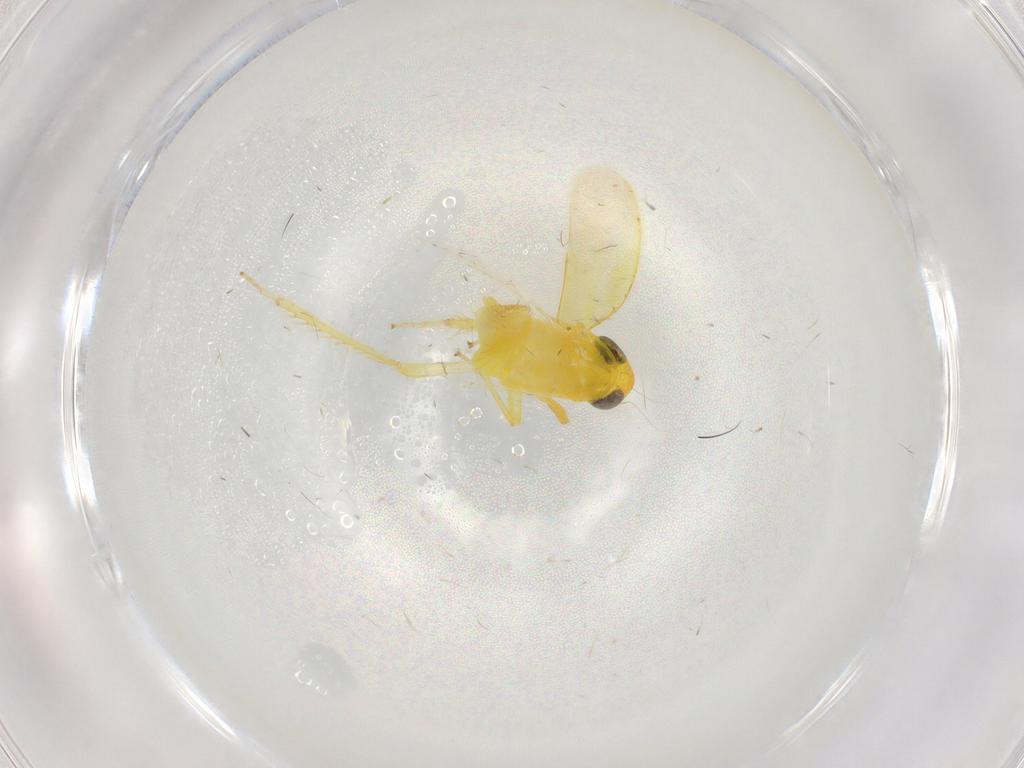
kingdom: Animalia
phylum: Arthropoda
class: Insecta
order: Hemiptera
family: Cicadellidae
